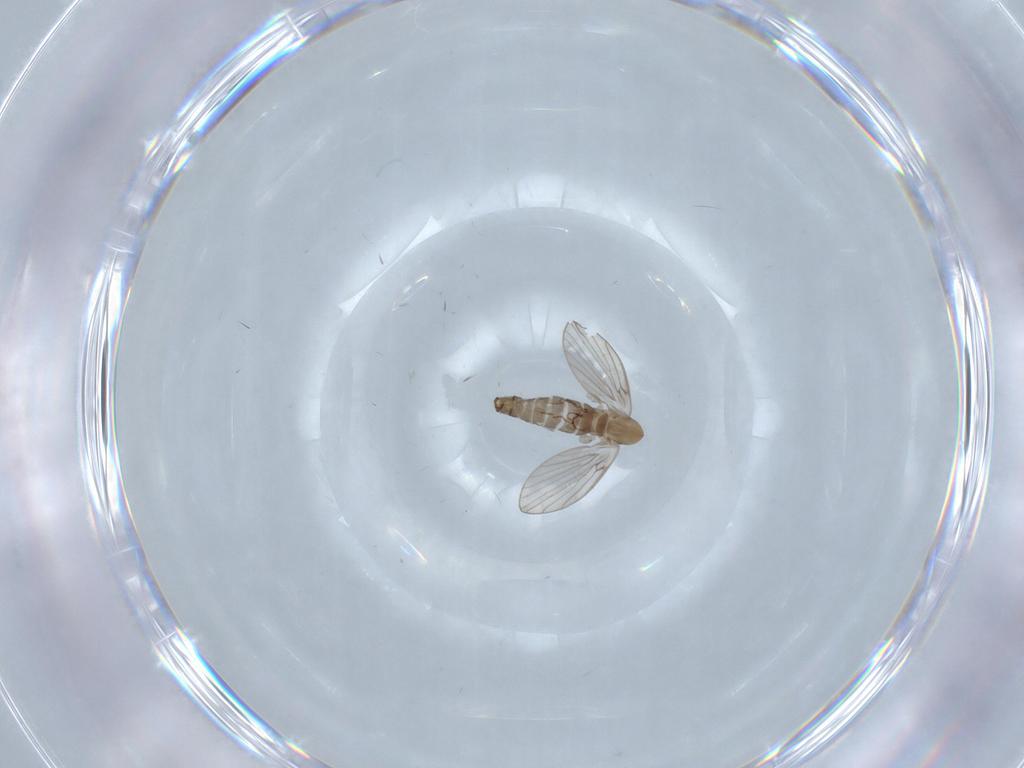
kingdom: Animalia
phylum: Arthropoda
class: Insecta
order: Diptera
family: Psychodidae
